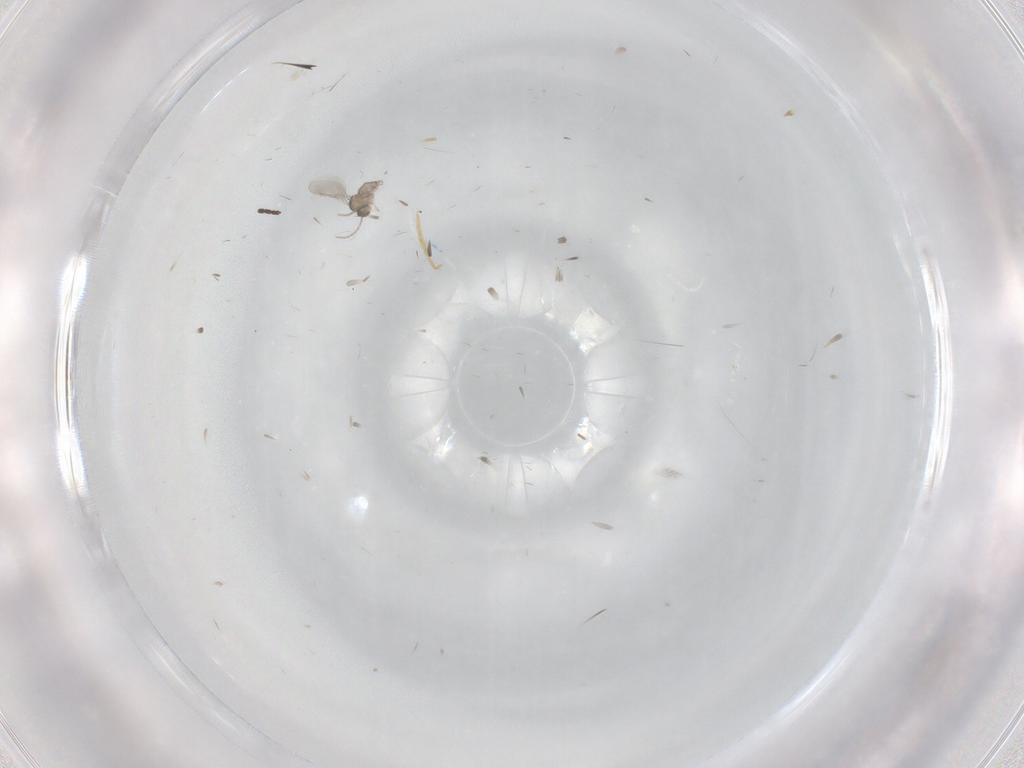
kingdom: Animalia
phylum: Arthropoda
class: Insecta
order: Diptera
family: Cecidomyiidae
